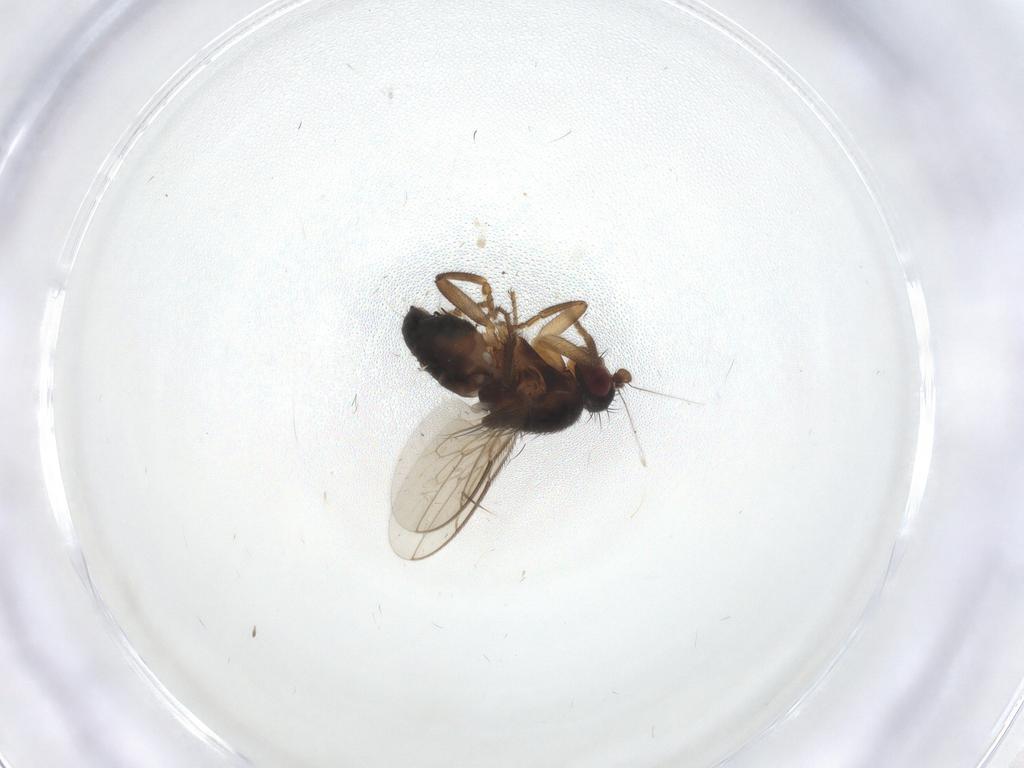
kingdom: Animalia
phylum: Arthropoda
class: Insecta
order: Diptera
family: Sphaeroceridae
